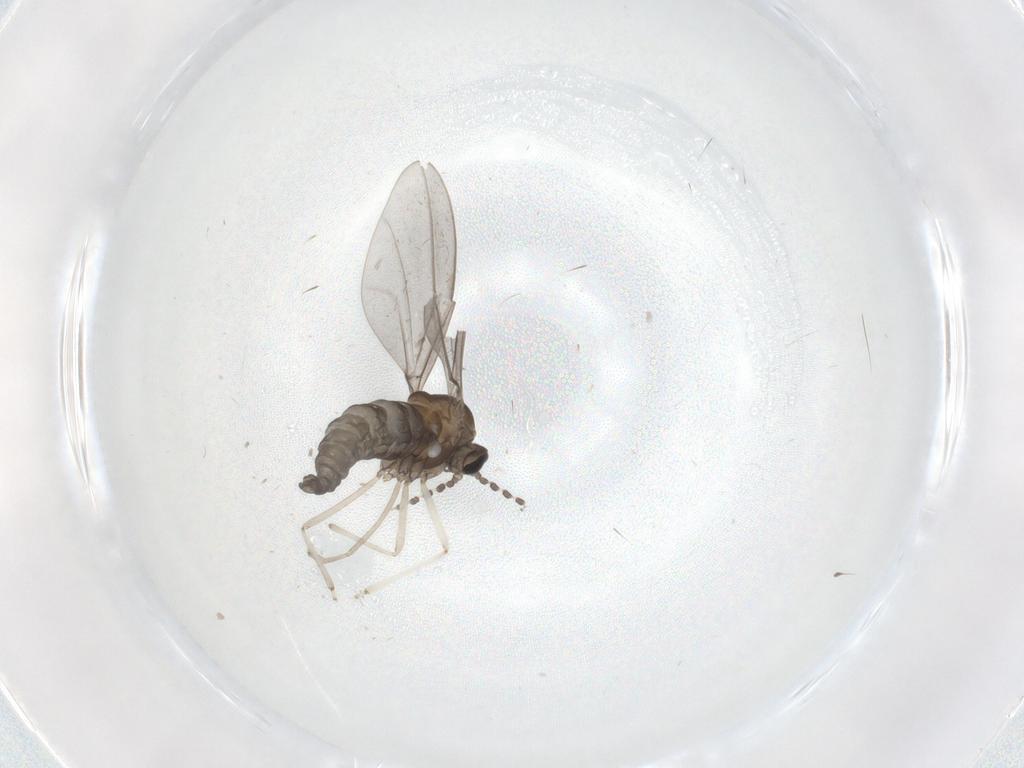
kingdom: Animalia
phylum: Arthropoda
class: Insecta
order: Diptera
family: Cecidomyiidae
